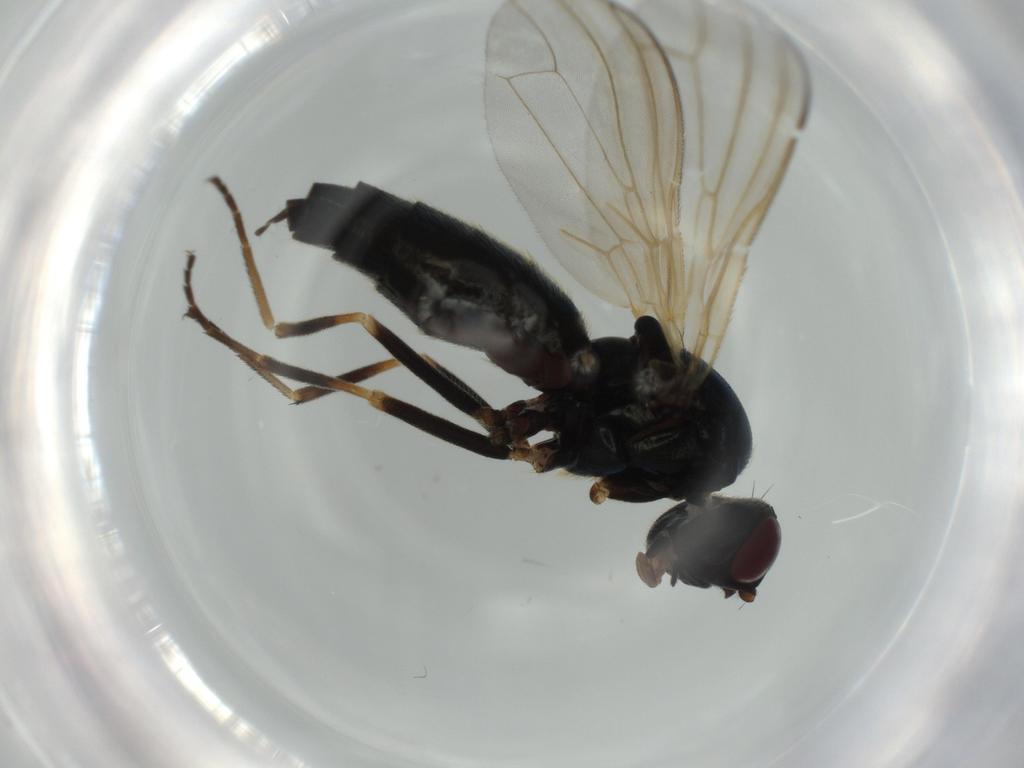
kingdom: Animalia
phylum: Arthropoda
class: Insecta
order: Diptera
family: Ceratopogonidae
